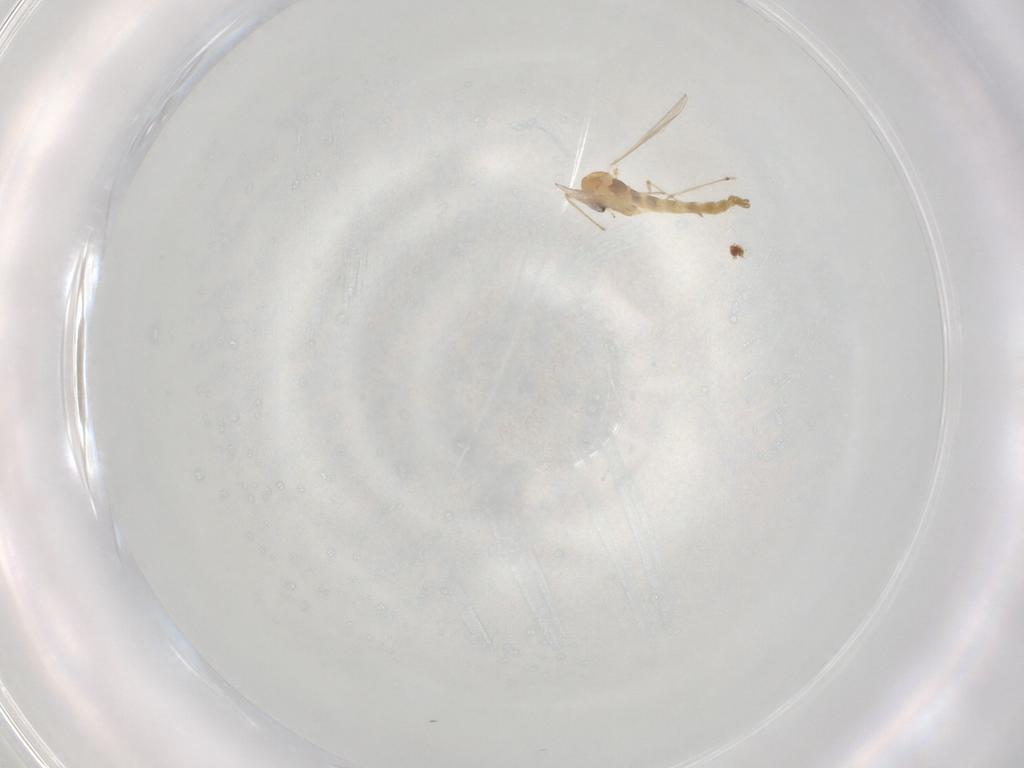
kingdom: Animalia
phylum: Arthropoda
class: Insecta
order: Diptera
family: Chironomidae
